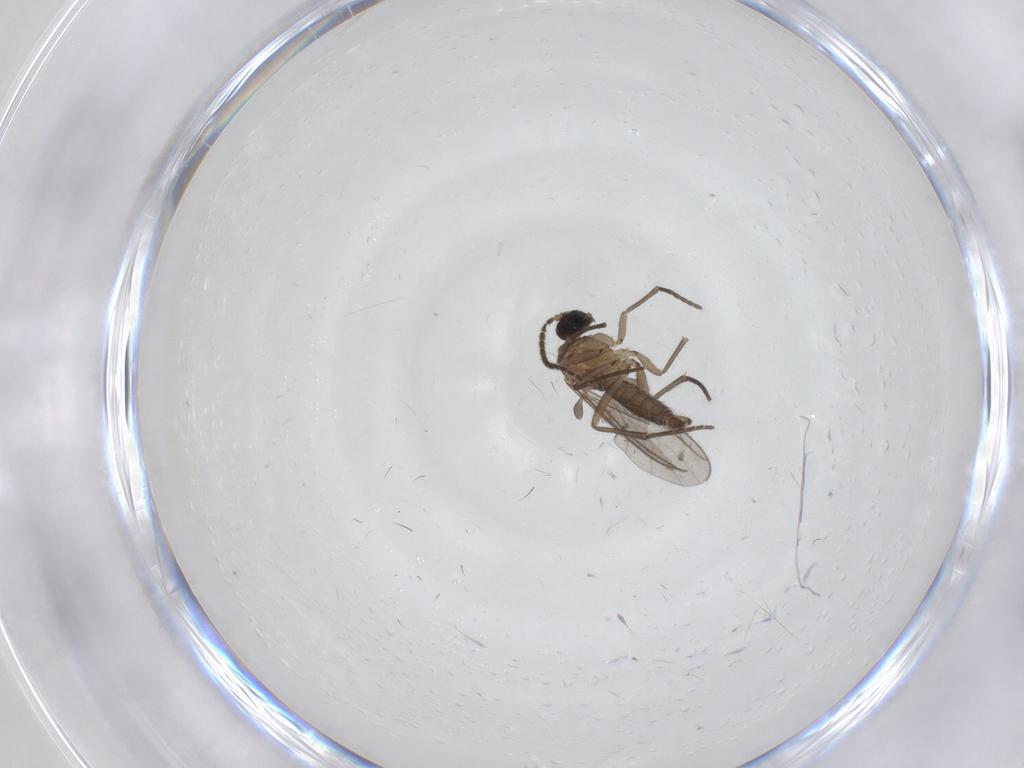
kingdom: Animalia
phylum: Arthropoda
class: Insecta
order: Diptera
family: Sciaridae
